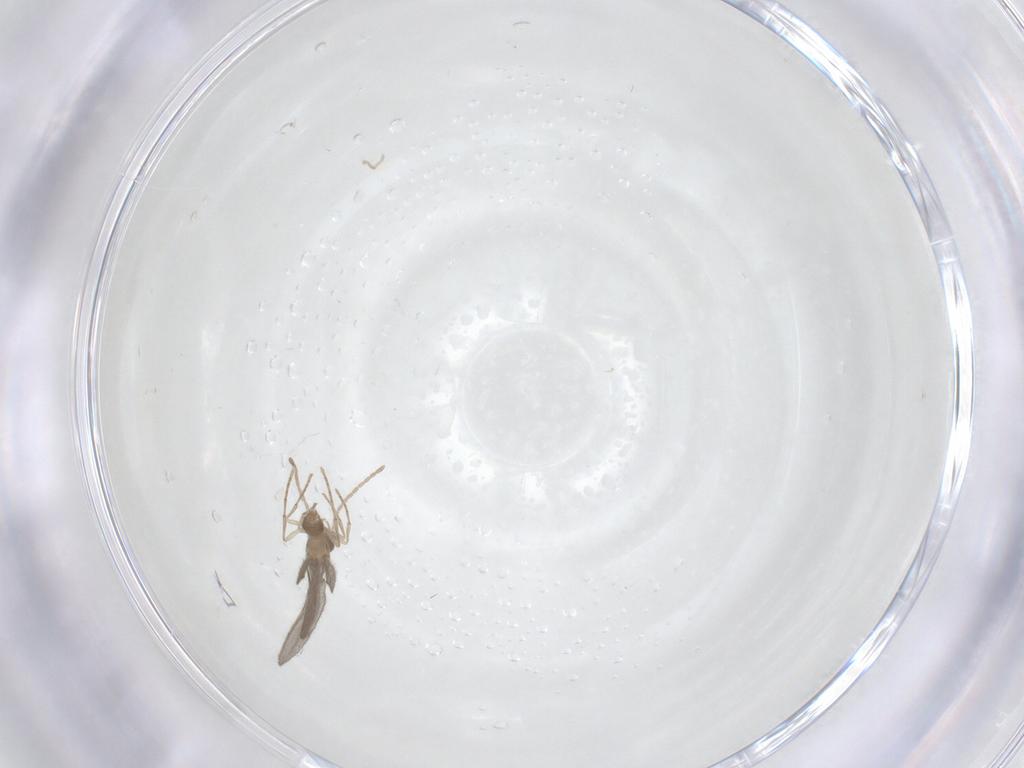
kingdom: Animalia
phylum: Arthropoda
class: Insecta
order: Hymenoptera
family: Formicidae
